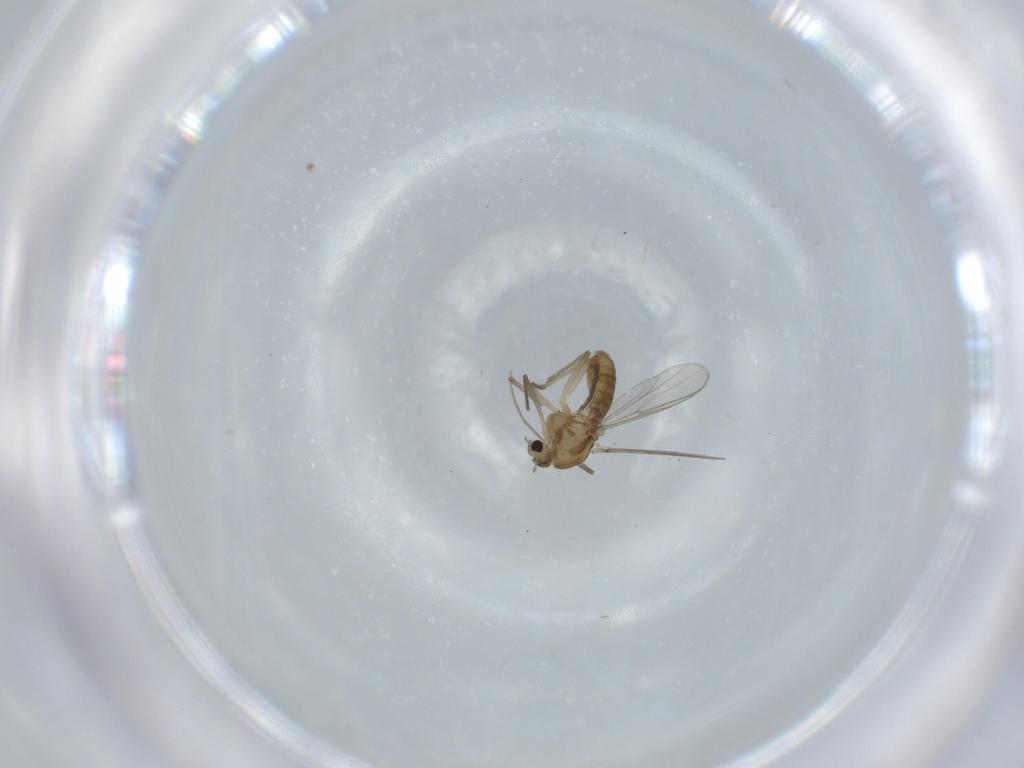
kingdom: Animalia
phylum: Arthropoda
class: Insecta
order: Diptera
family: Chironomidae
